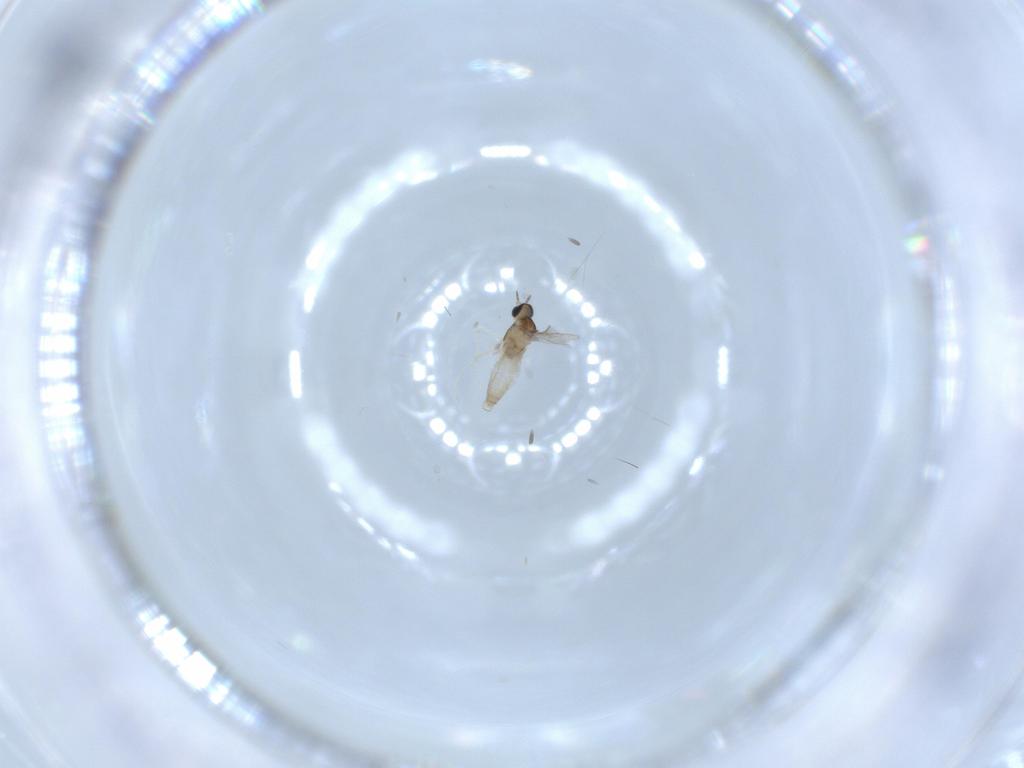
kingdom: Animalia
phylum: Arthropoda
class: Insecta
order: Diptera
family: Sciaridae
